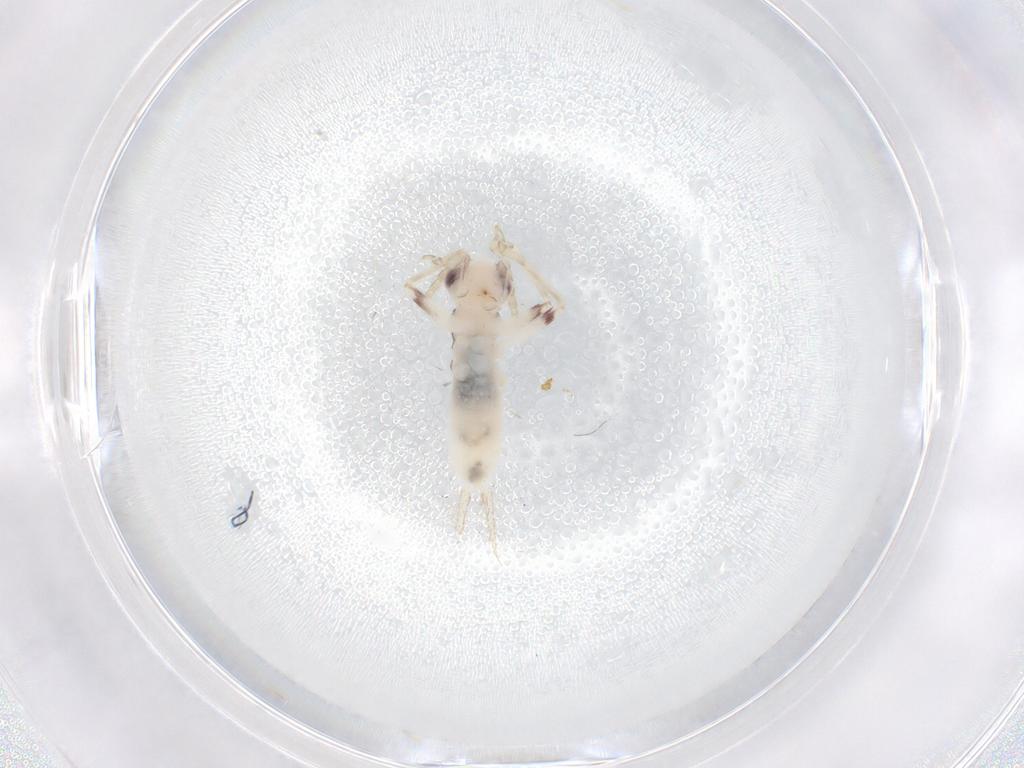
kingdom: Animalia
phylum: Arthropoda
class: Insecta
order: Orthoptera
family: Trigonidiidae
